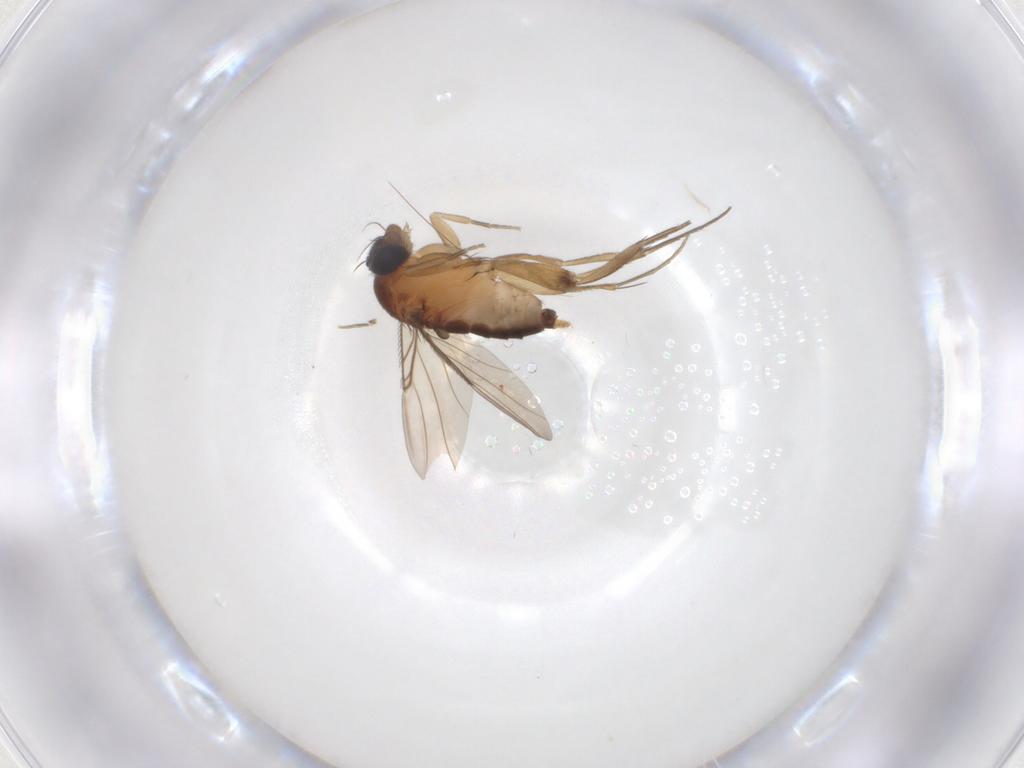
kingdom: Animalia
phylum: Arthropoda
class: Insecta
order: Diptera
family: Phoridae
